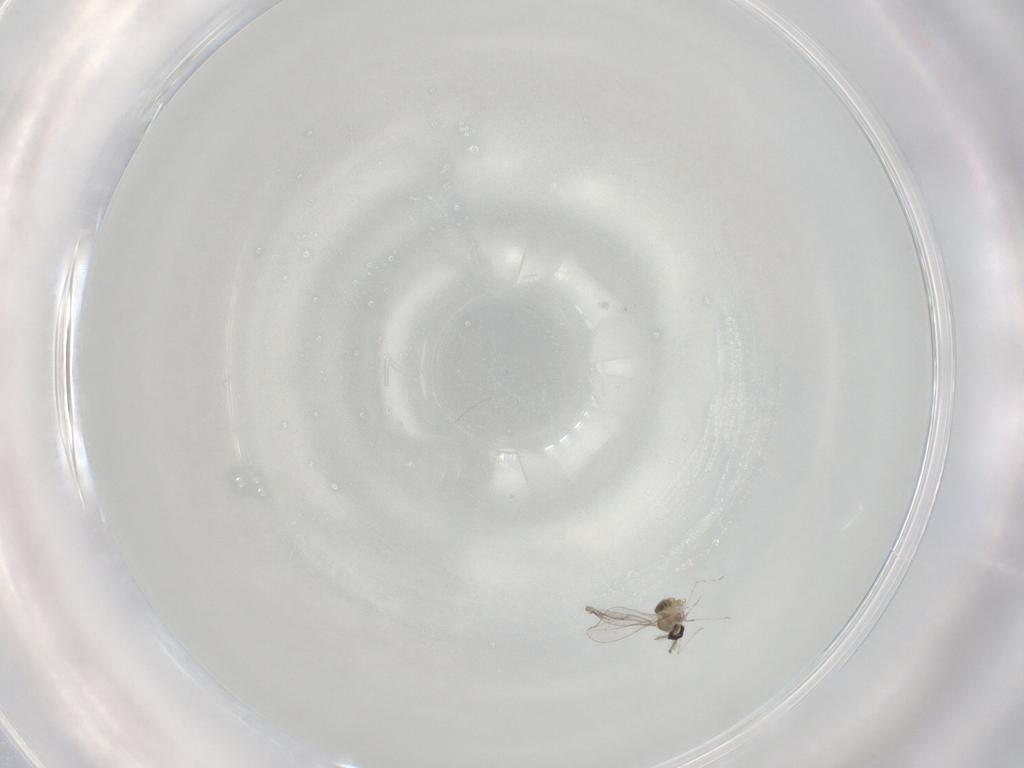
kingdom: Animalia
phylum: Arthropoda
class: Insecta
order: Diptera
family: Cecidomyiidae
